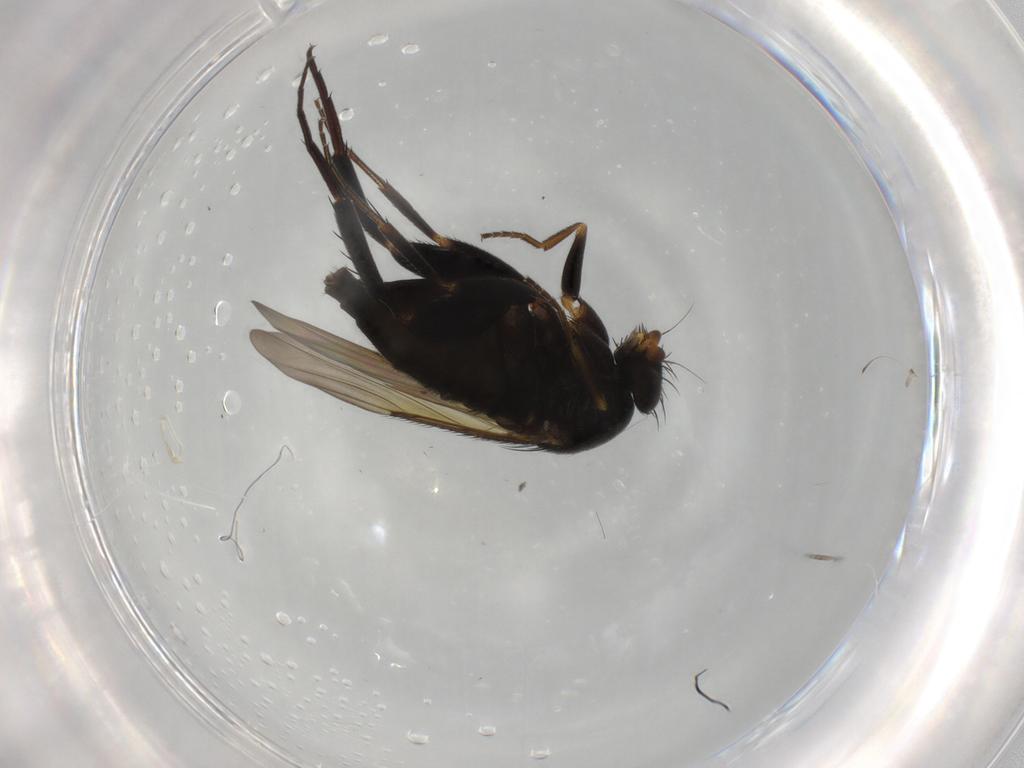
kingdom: Animalia
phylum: Arthropoda
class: Insecta
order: Diptera
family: Phoridae
